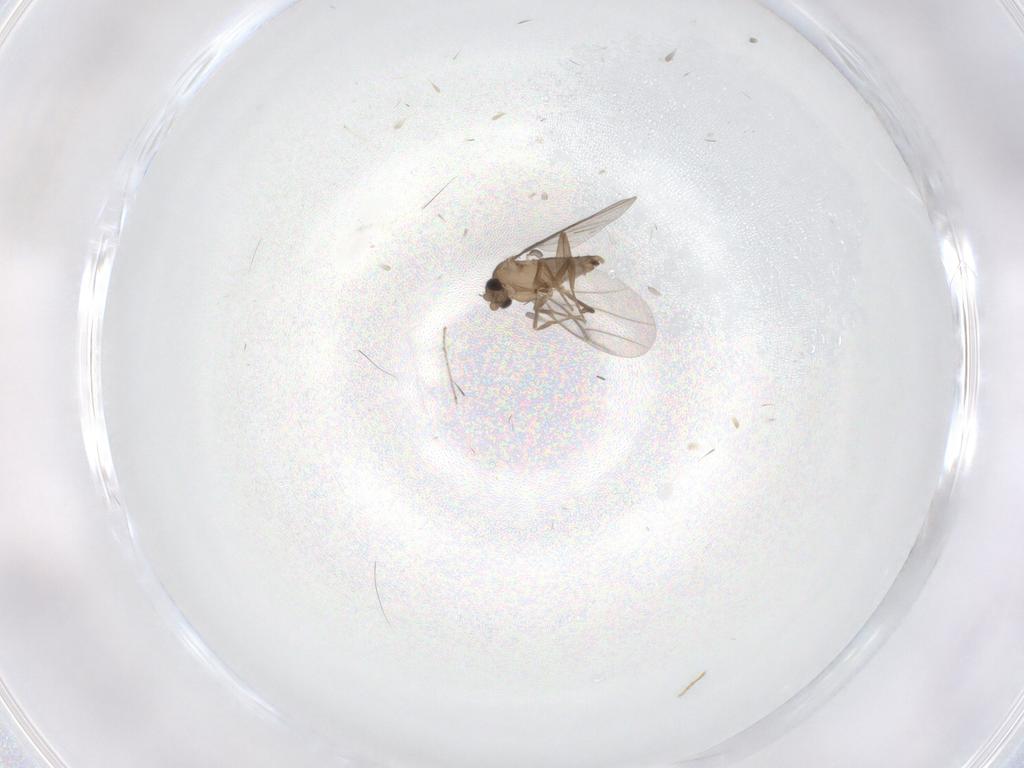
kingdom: Animalia
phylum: Arthropoda
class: Insecta
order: Diptera
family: Cecidomyiidae
